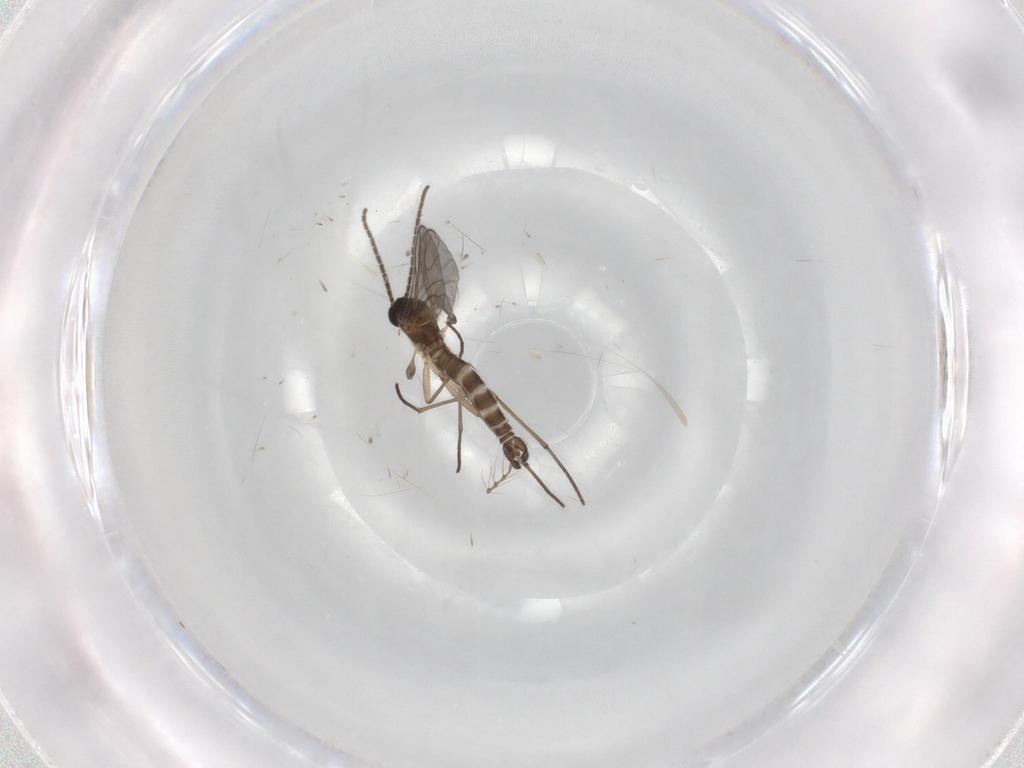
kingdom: Animalia
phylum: Arthropoda
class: Insecta
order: Diptera
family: Sciaridae
